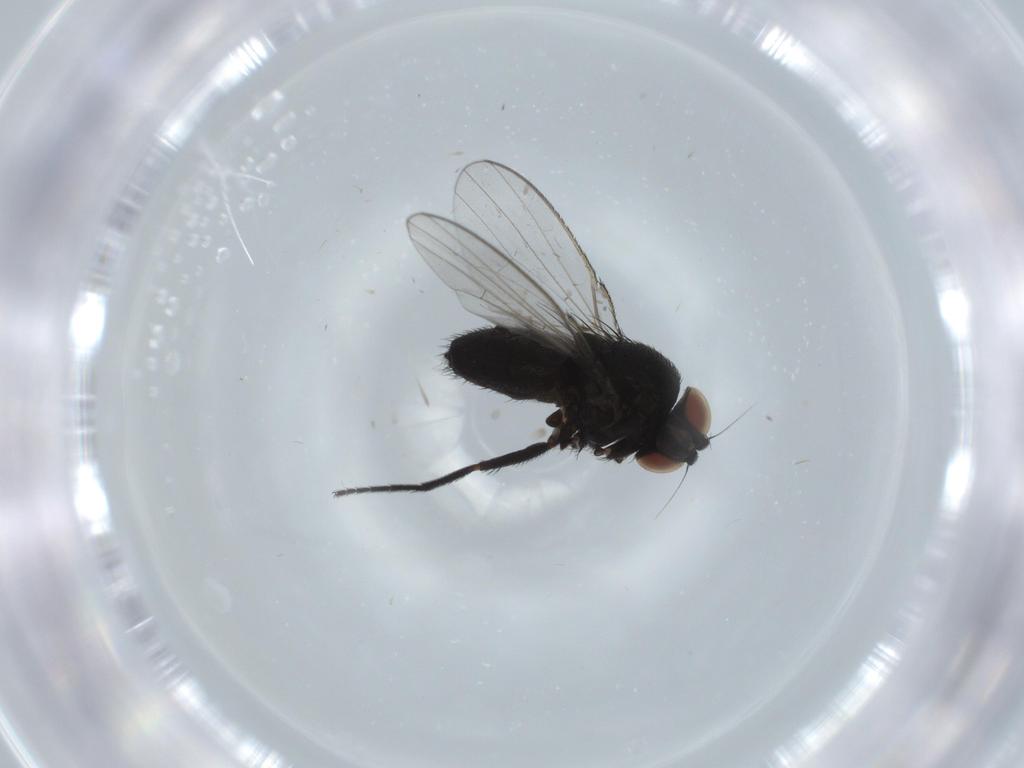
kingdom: Animalia
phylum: Arthropoda
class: Insecta
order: Diptera
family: Milichiidae
